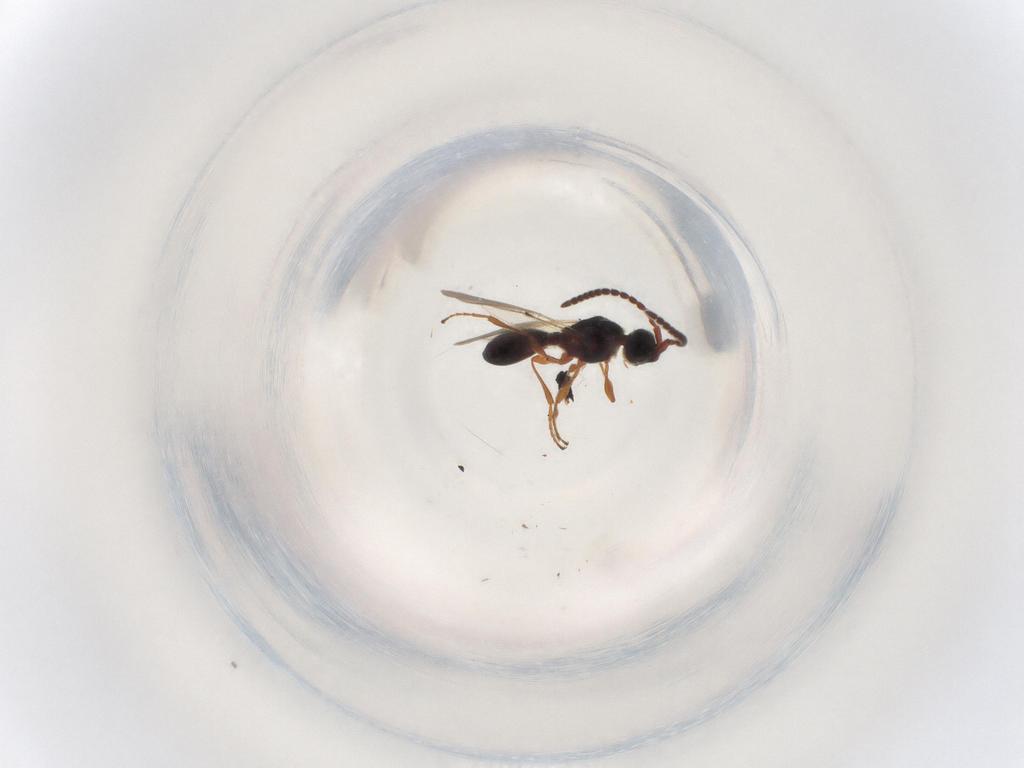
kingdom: Animalia
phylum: Arthropoda
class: Insecta
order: Hymenoptera
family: Diapriidae
